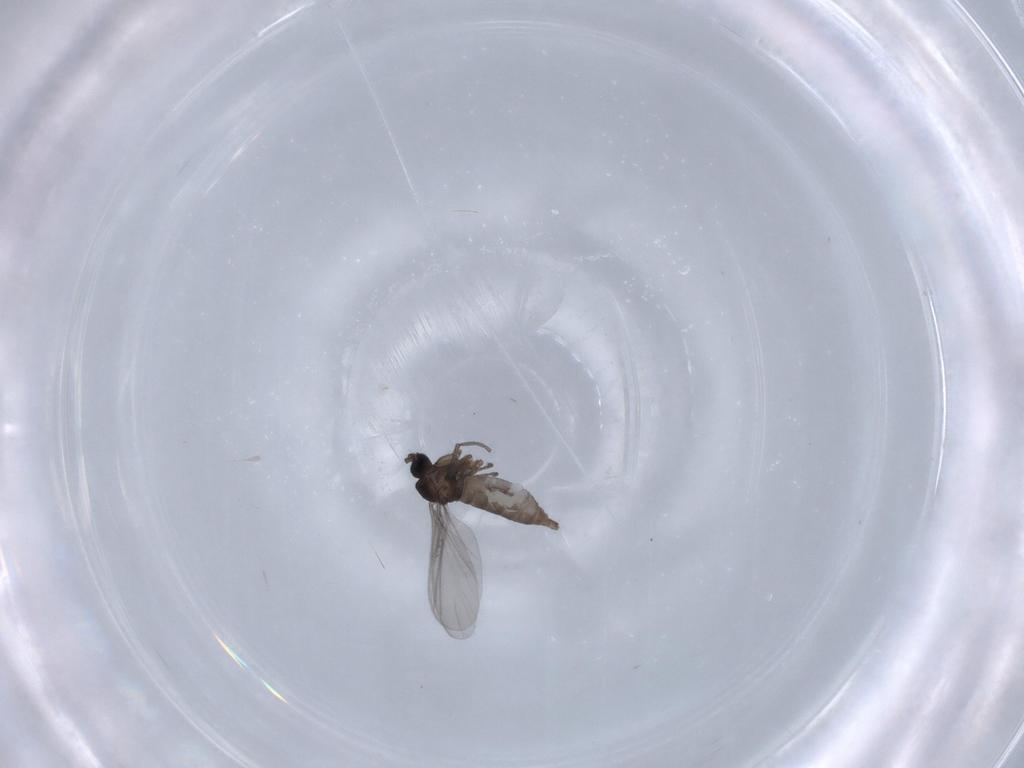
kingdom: Animalia
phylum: Arthropoda
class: Insecta
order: Diptera
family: Sciaridae
